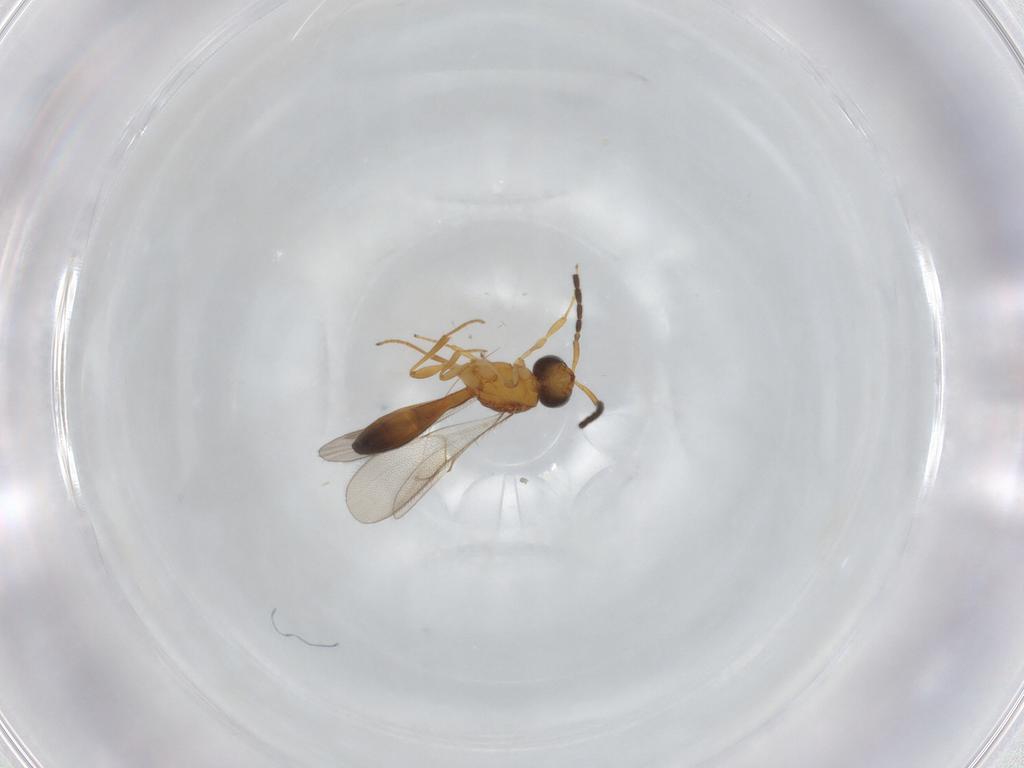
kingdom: Animalia
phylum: Arthropoda
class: Insecta
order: Hymenoptera
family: Scelionidae
